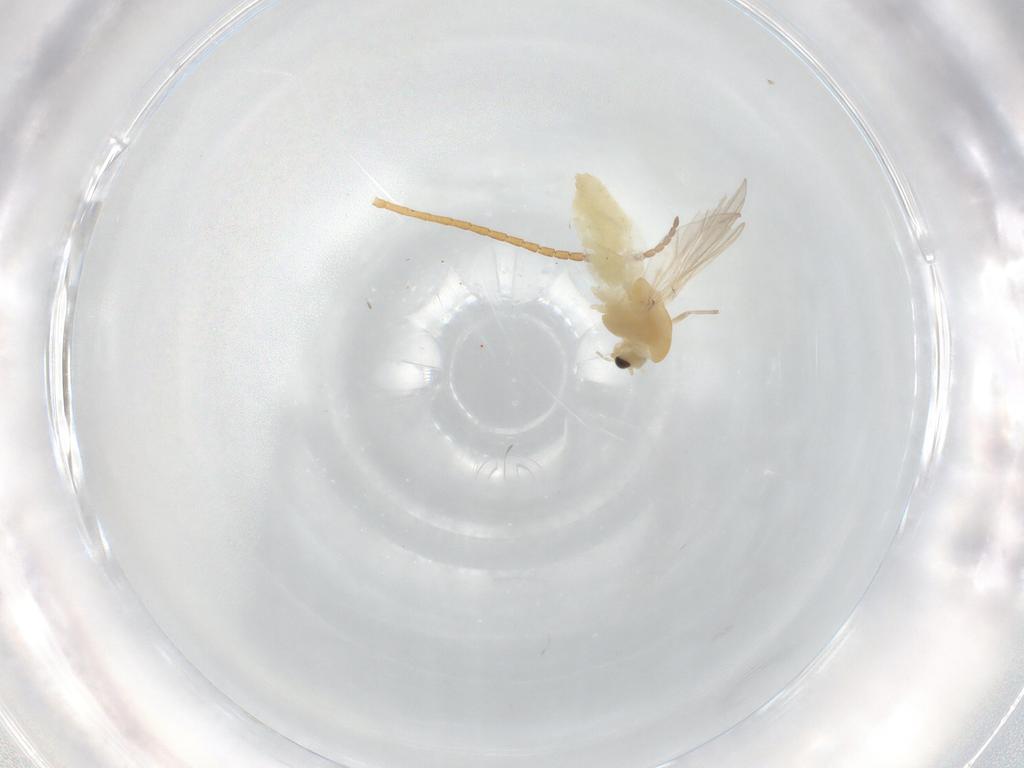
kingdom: Animalia
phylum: Arthropoda
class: Insecta
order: Diptera
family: Chironomidae
